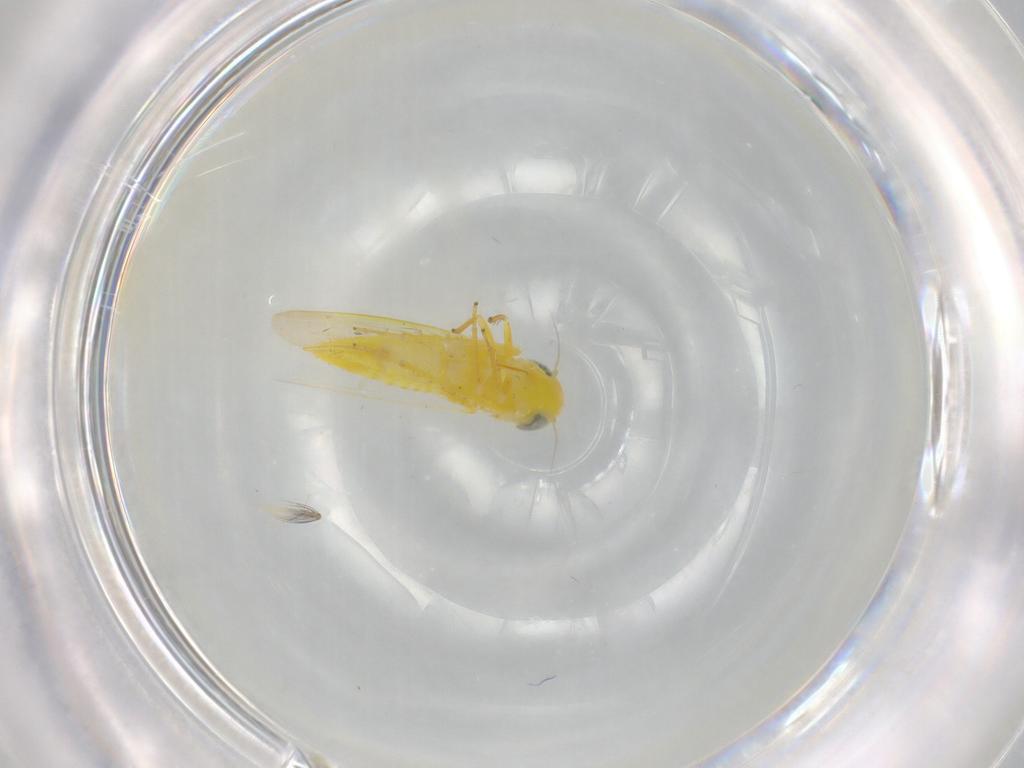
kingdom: Animalia
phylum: Arthropoda
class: Insecta
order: Hemiptera
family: Cicadellidae
